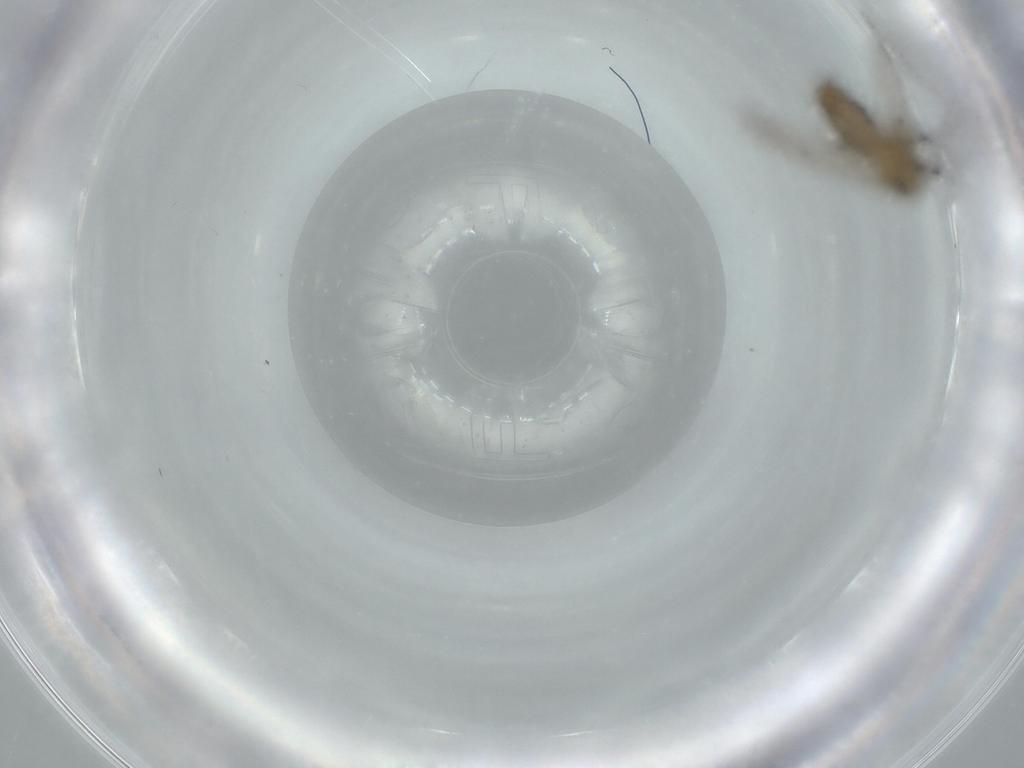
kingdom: Animalia
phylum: Arthropoda
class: Insecta
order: Diptera
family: Chironomidae
